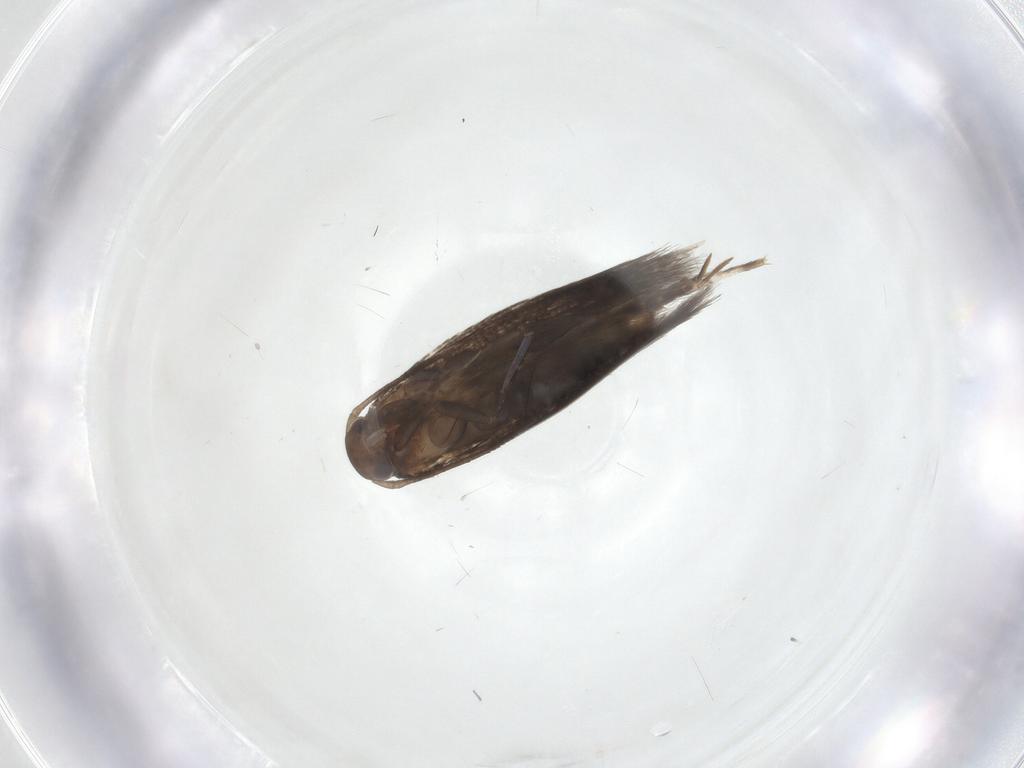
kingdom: Animalia
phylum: Arthropoda
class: Insecta
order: Lepidoptera
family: Elachistidae
